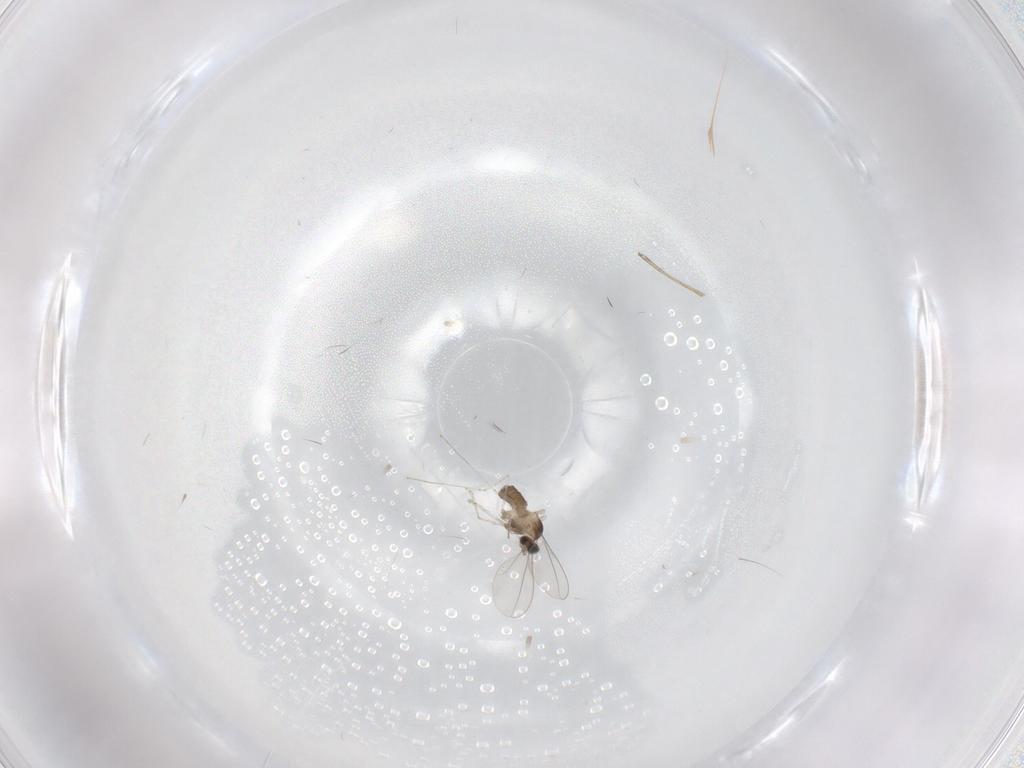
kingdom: Animalia
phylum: Arthropoda
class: Insecta
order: Diptera
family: Cecidomyiidae
